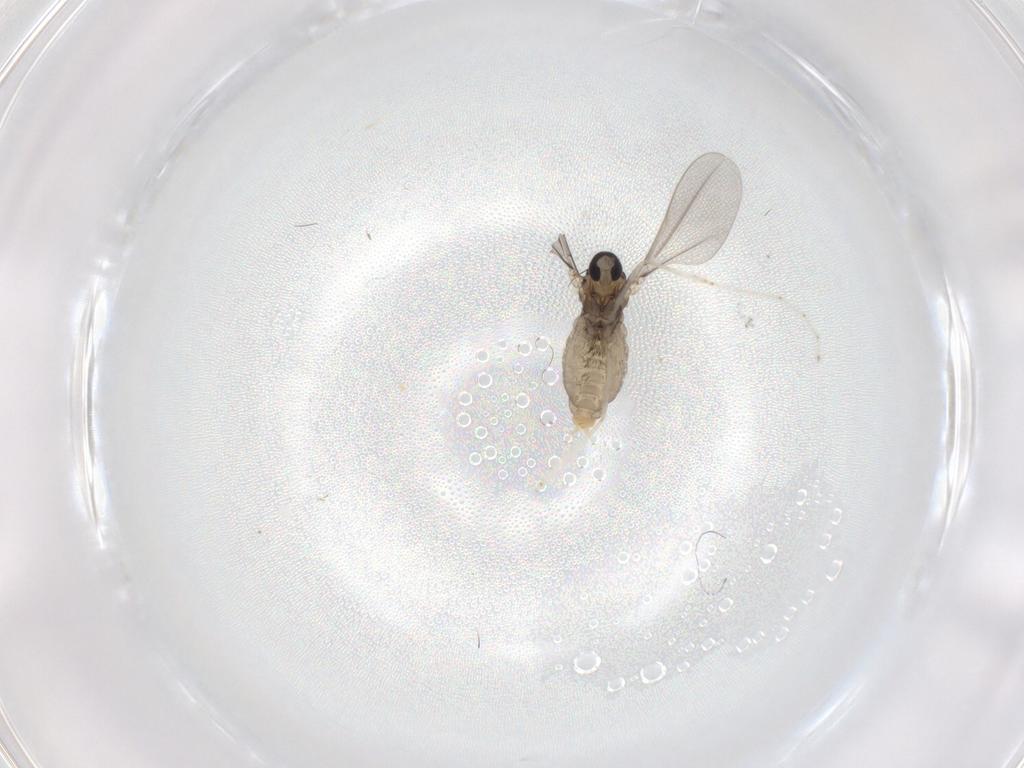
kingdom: Animalia
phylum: Arthropoda
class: Insecta
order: Diptera
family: Cecidomyiidae
